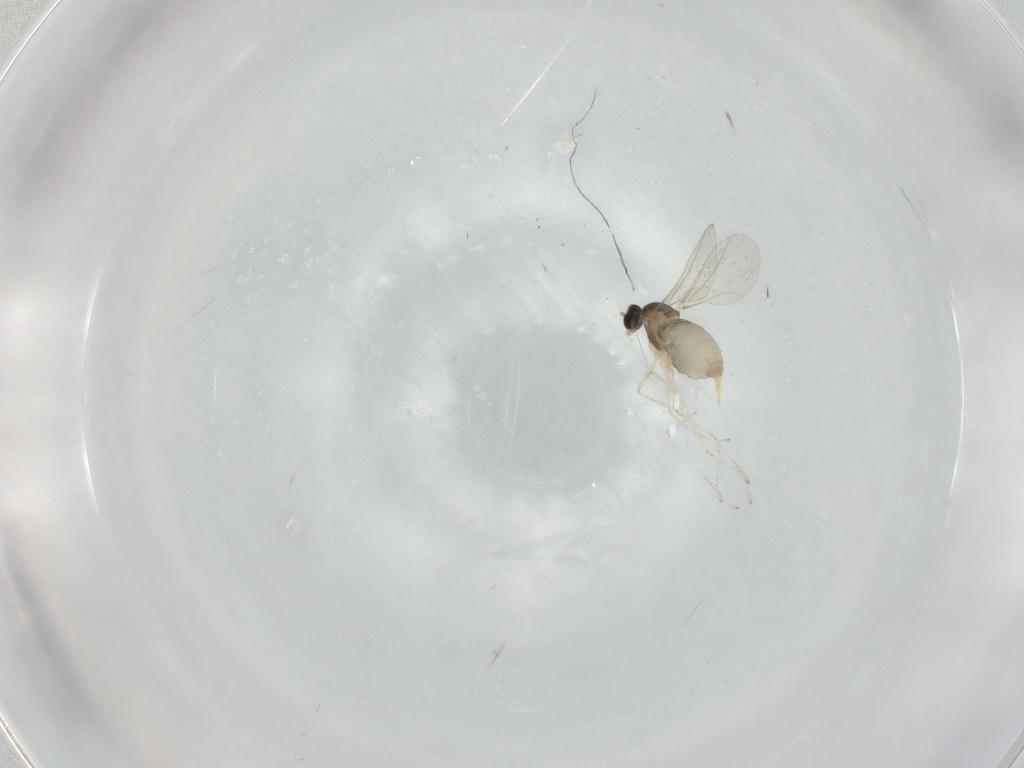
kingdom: Animalia
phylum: Arthropoda
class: Insecta
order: Diptera
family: Cecidomyiidae
